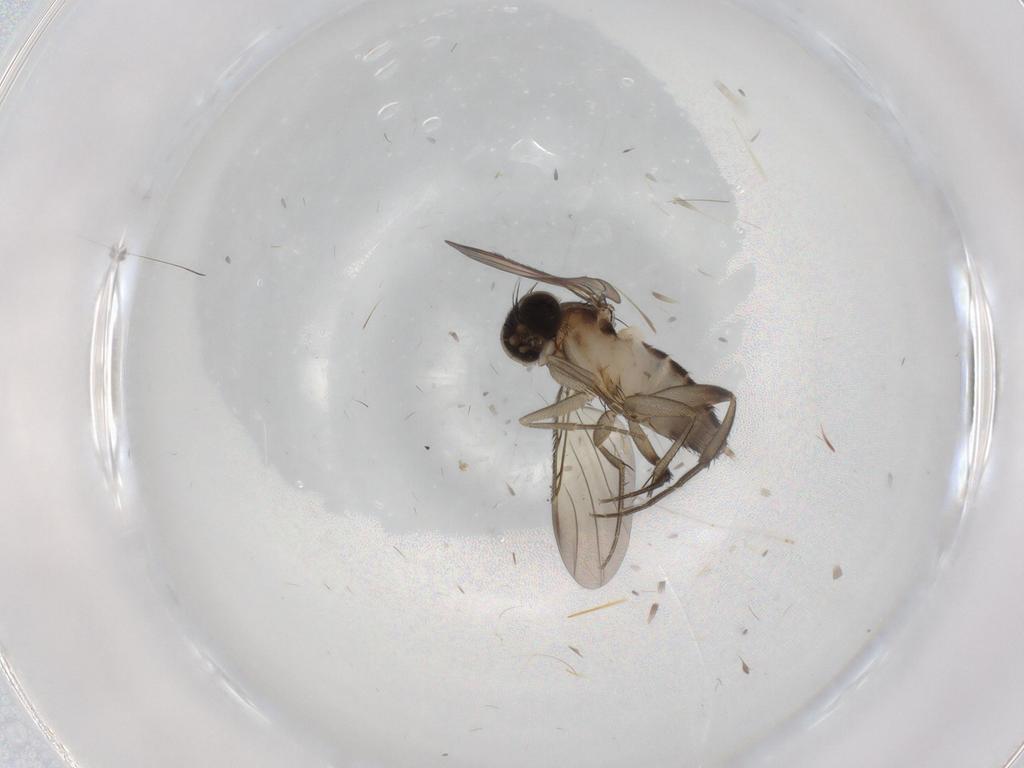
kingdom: Animalia
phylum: Arthropoda
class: Insecta
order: Diptera
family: Phoridae
